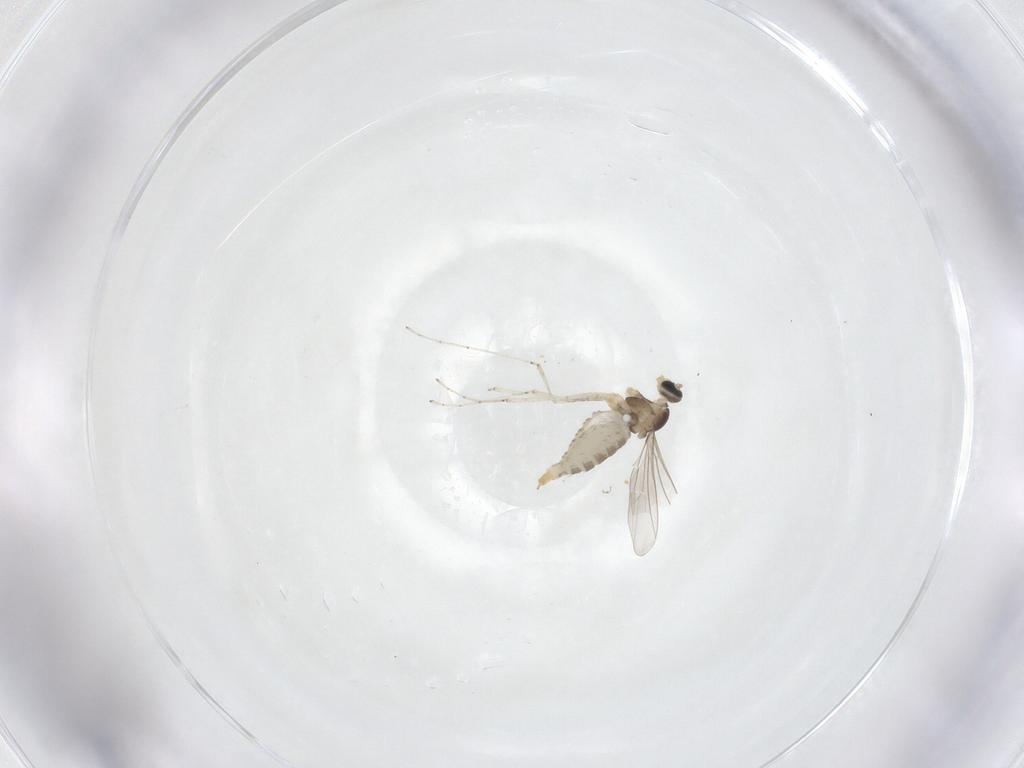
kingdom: Animalia
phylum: Arthropoda
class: Insecta
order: Diptera
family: Cecidomyiidae
